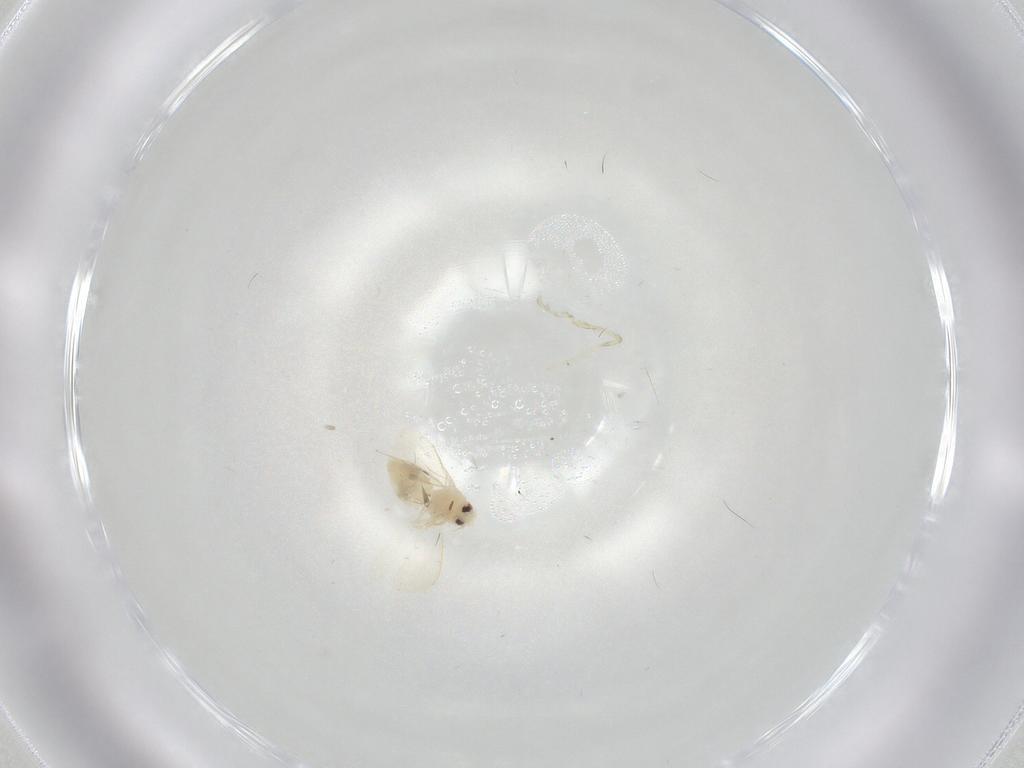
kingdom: Animalia
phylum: Arthropoda
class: Insecta
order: Hemiptera
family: Aleyrodidae
